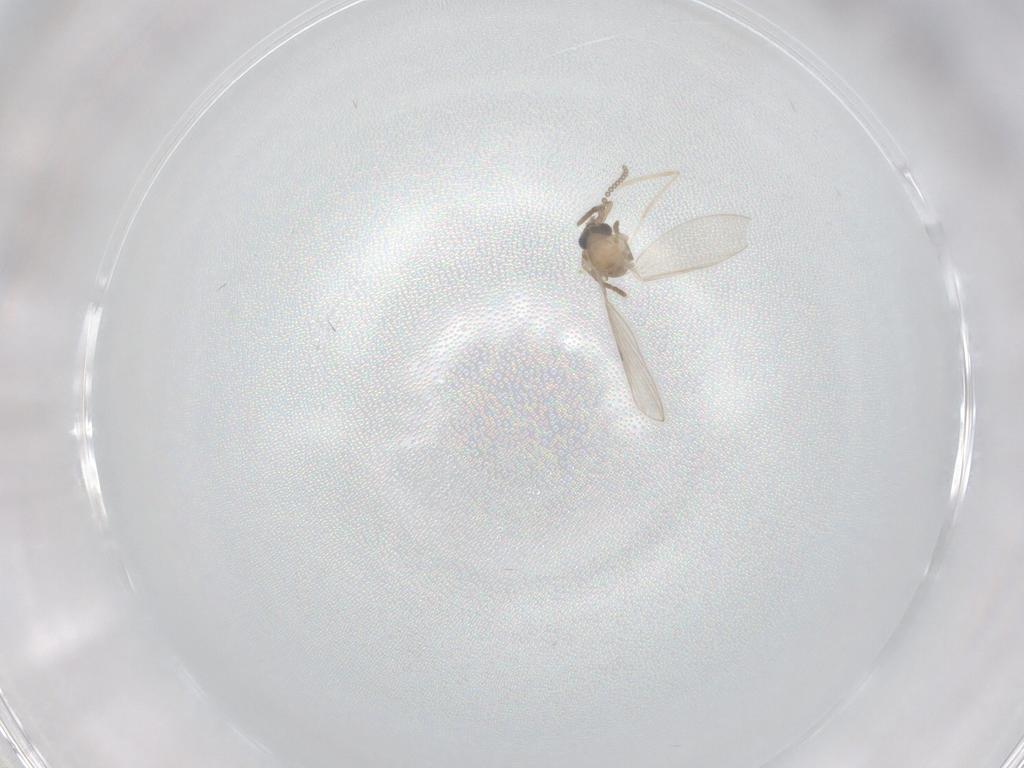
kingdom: Animalia
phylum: Arthropoda
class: Insecta
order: Diptera
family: Psychodidae
